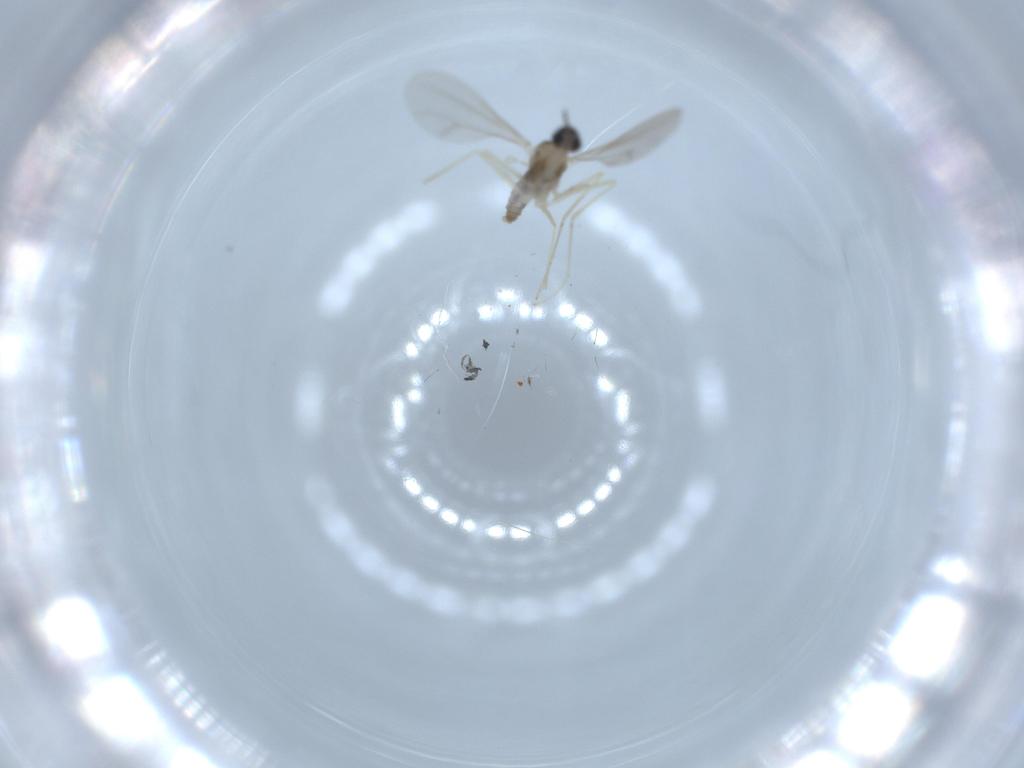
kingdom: Animalia
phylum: Arthropoda
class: Insecta
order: Diptera
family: Cecidomyiidae
